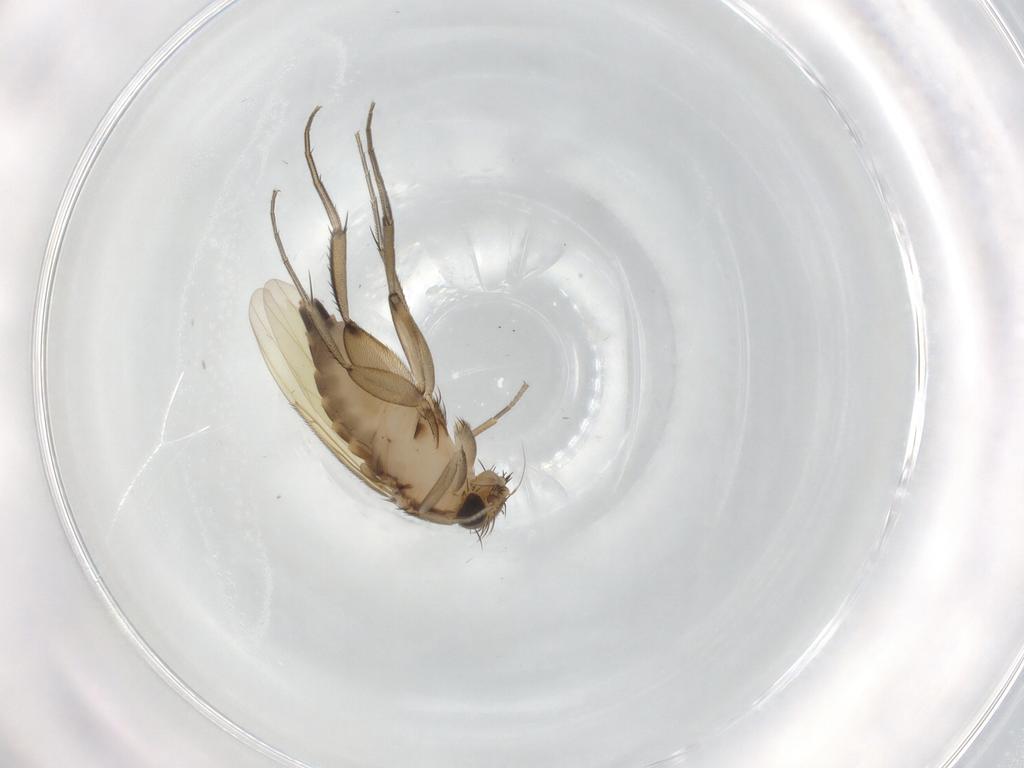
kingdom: Animalia
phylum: Arthropoda
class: Insecta
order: Diptera
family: Phoridae
